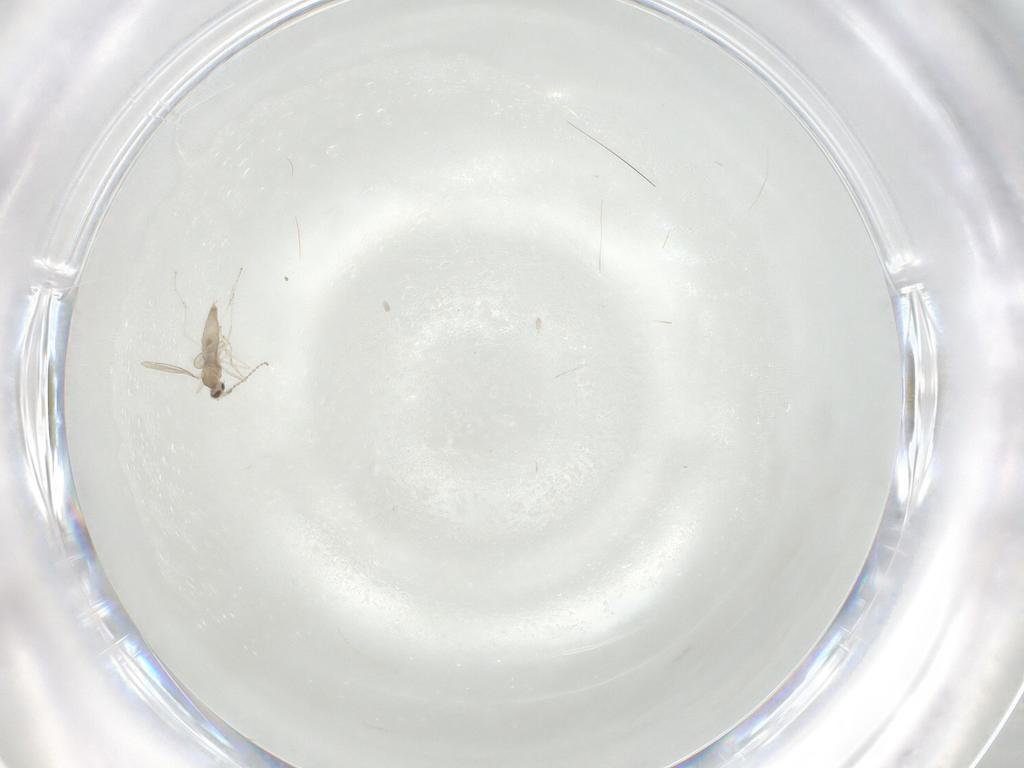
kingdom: Animalia
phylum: Arthropoda
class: Insecta
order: Diptera
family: Cecidomyiidae
